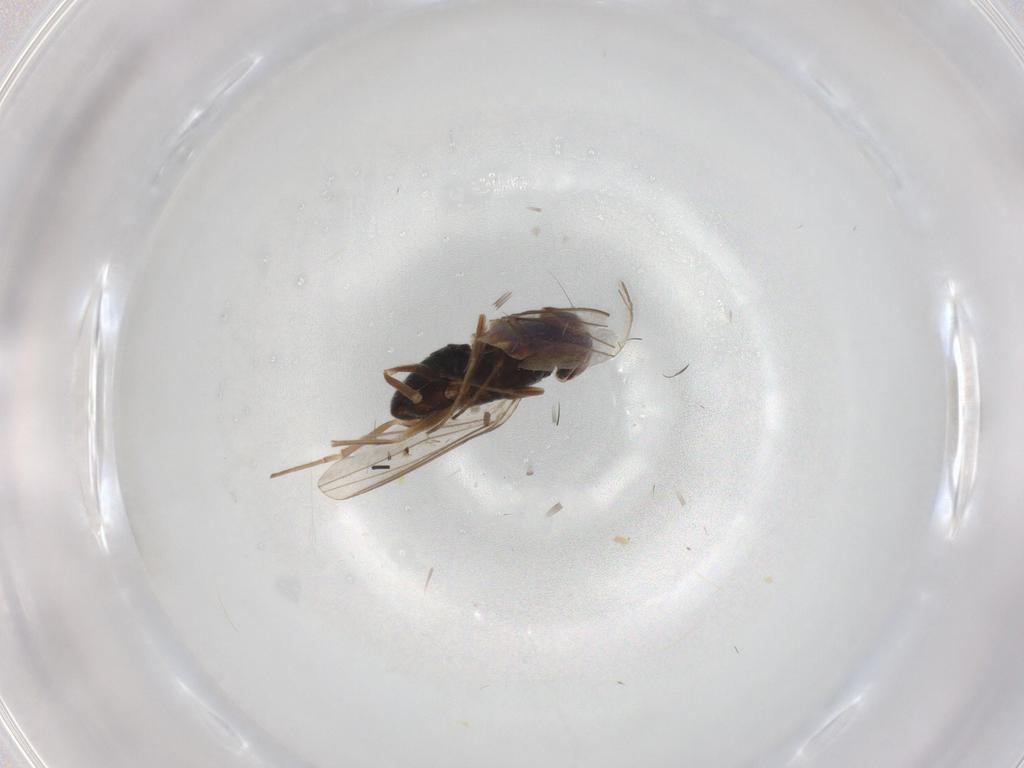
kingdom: Animalia
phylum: Arthropoda
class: Insecta
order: Diptera
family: Dolichopodidae
